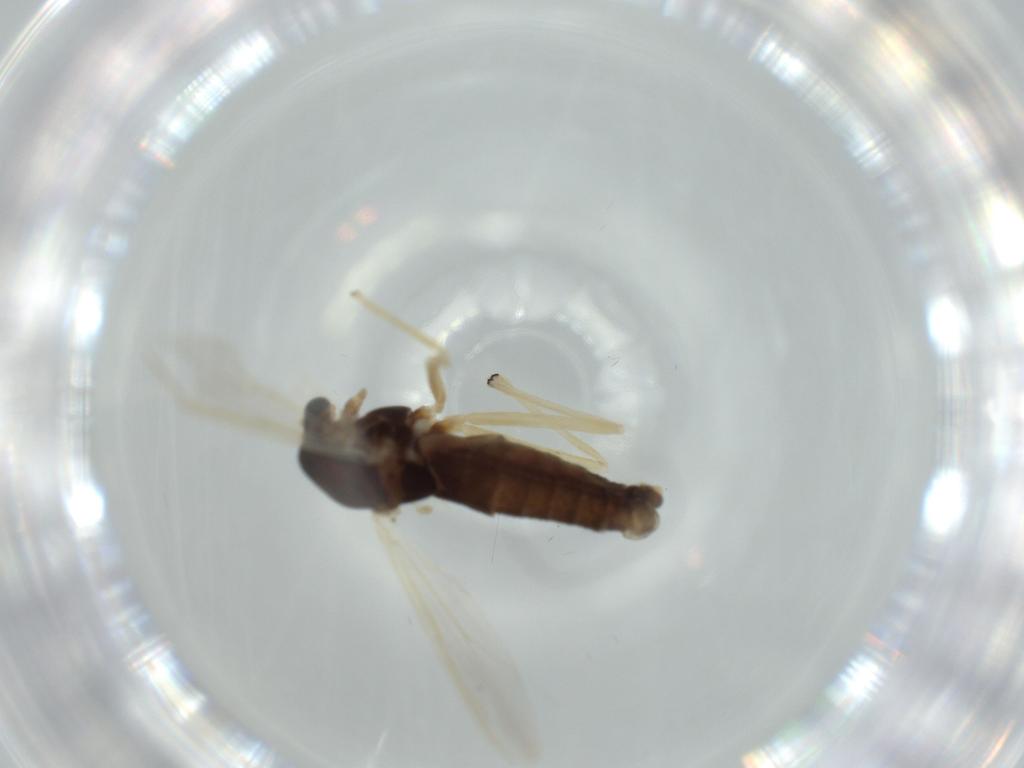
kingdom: Animalia
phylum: Arthropoda
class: Insecta
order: Diptera
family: Chironomidae
